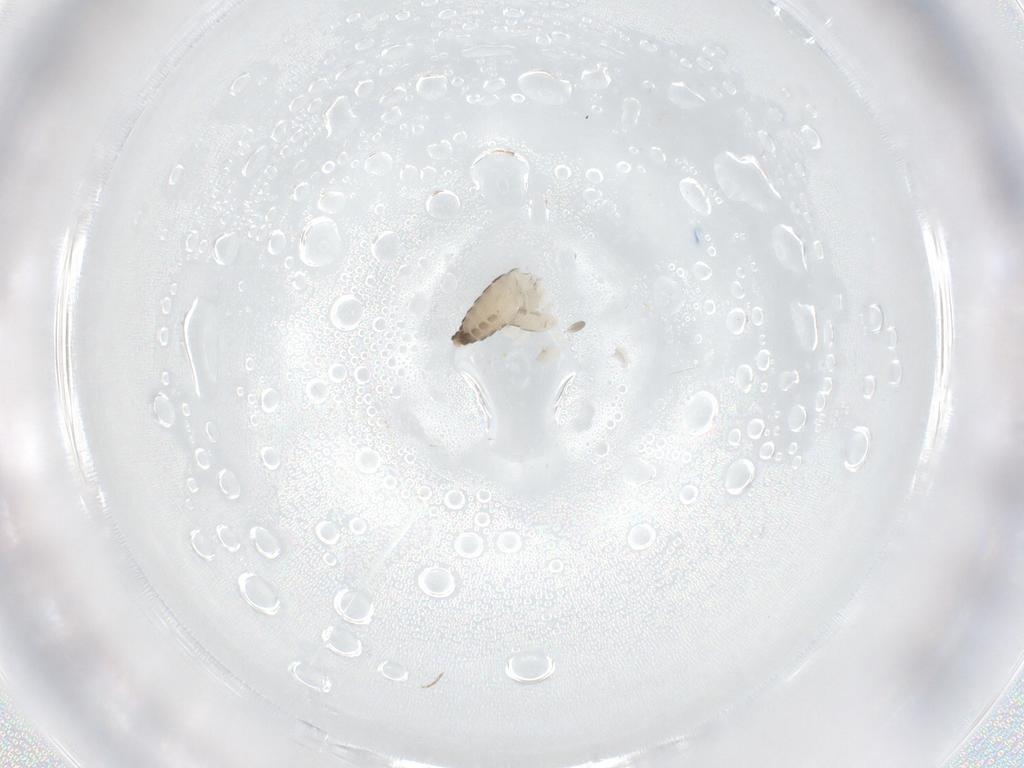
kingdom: Animalia
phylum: Arthropoda
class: Insecta
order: Diptera
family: Ceratopogonidae
